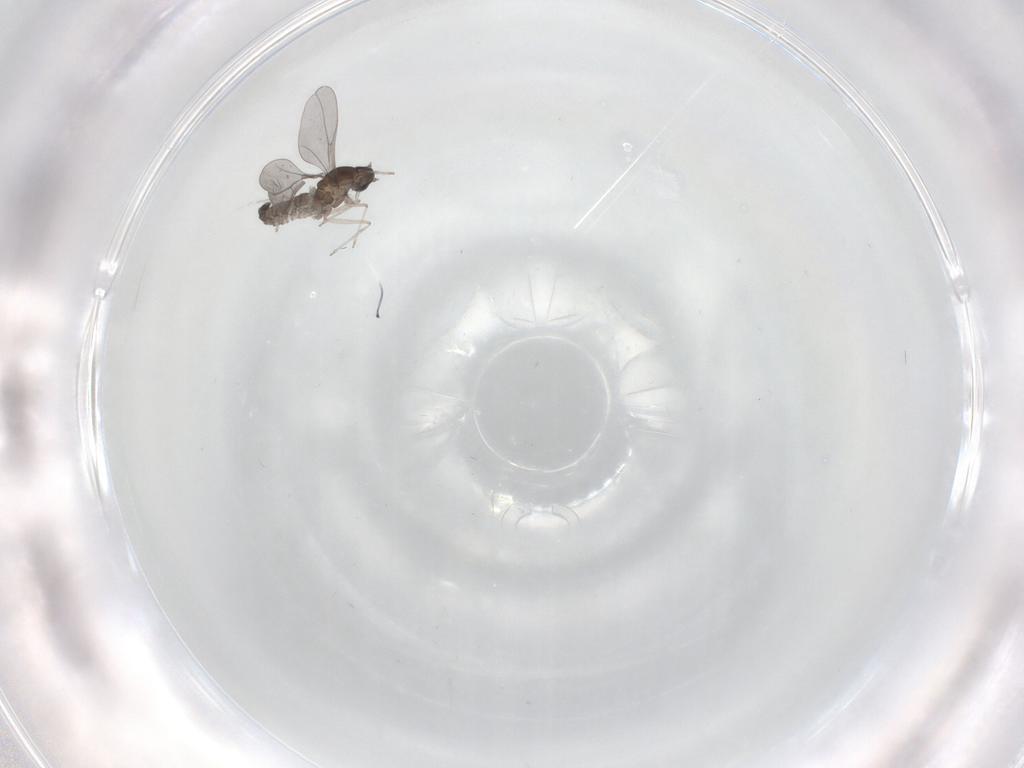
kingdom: Animalia
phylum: Arthropoda
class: Insecta
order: Diptera
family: Cecidomyiidae
